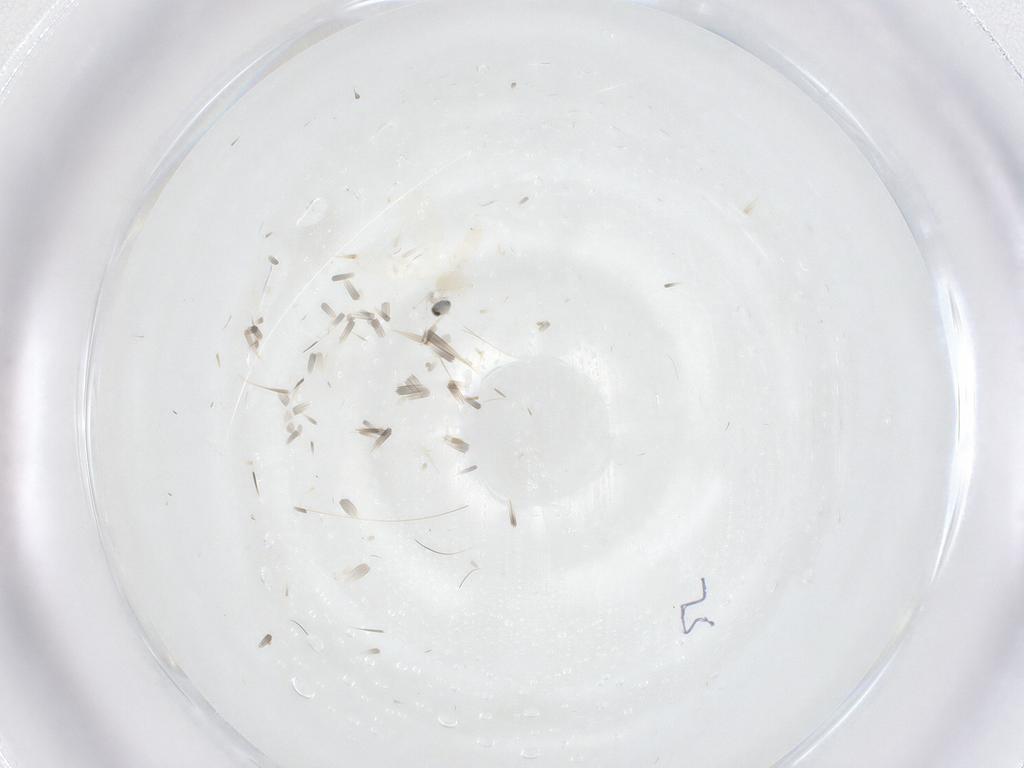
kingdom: Animalia
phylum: Arthropoda
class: Insecta
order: Diptera
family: Cecidomyiidae
